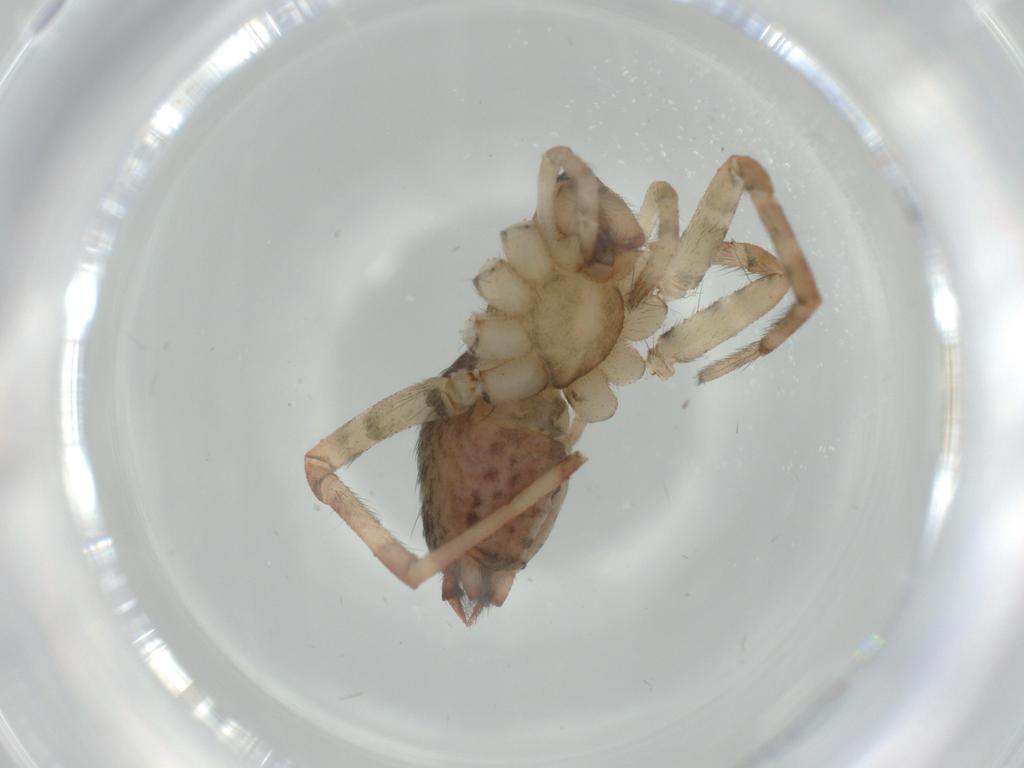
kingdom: Animalia
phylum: Arthropoda
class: Arachnida
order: Araneae
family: Agelenidae
